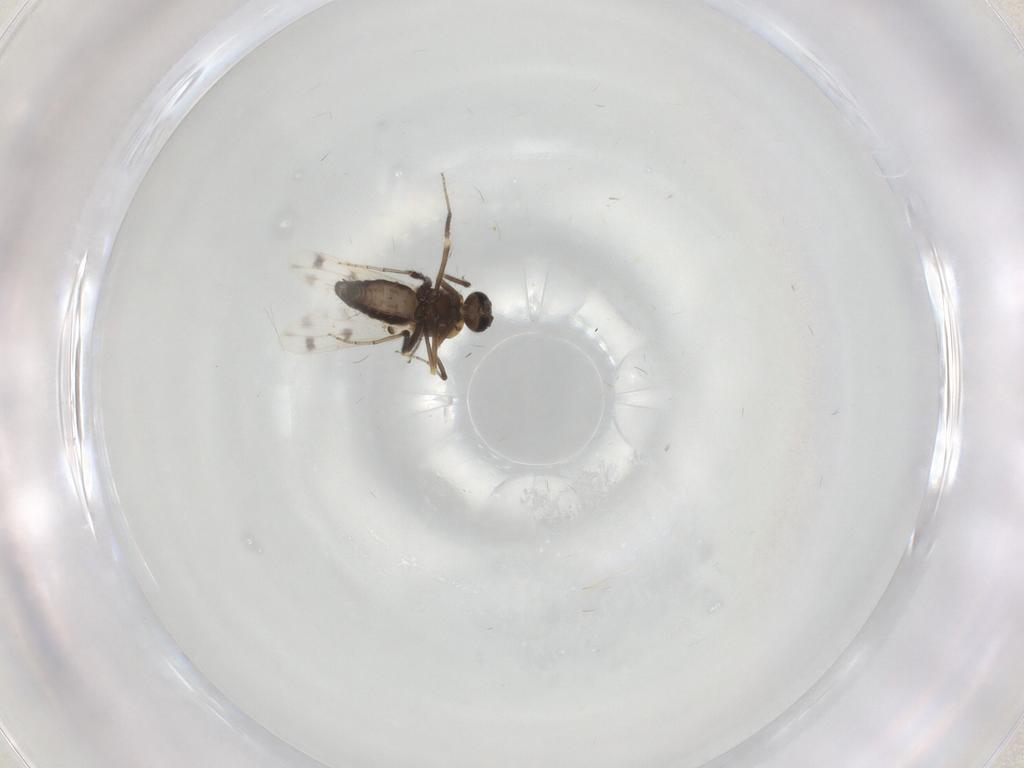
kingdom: Animalia
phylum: Arthropoda
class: Insecta
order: Diptera
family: Ceratopogonidae
